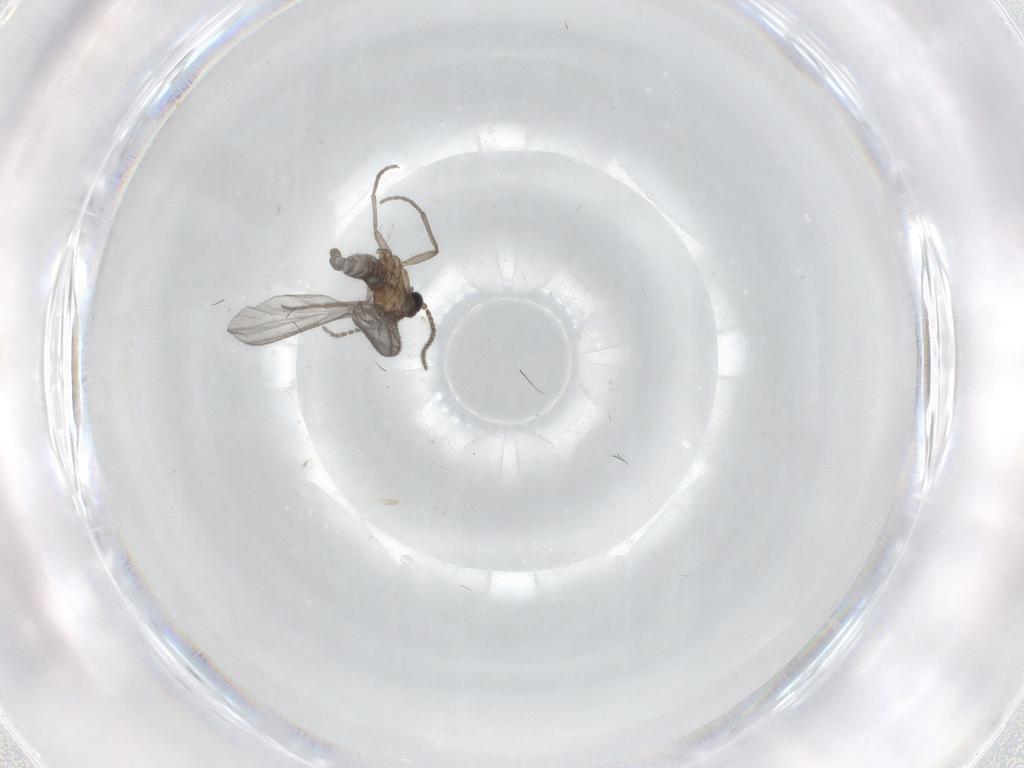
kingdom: Animalia
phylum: Arthropoda
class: Insecta
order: Diptera
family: Sciaridae
